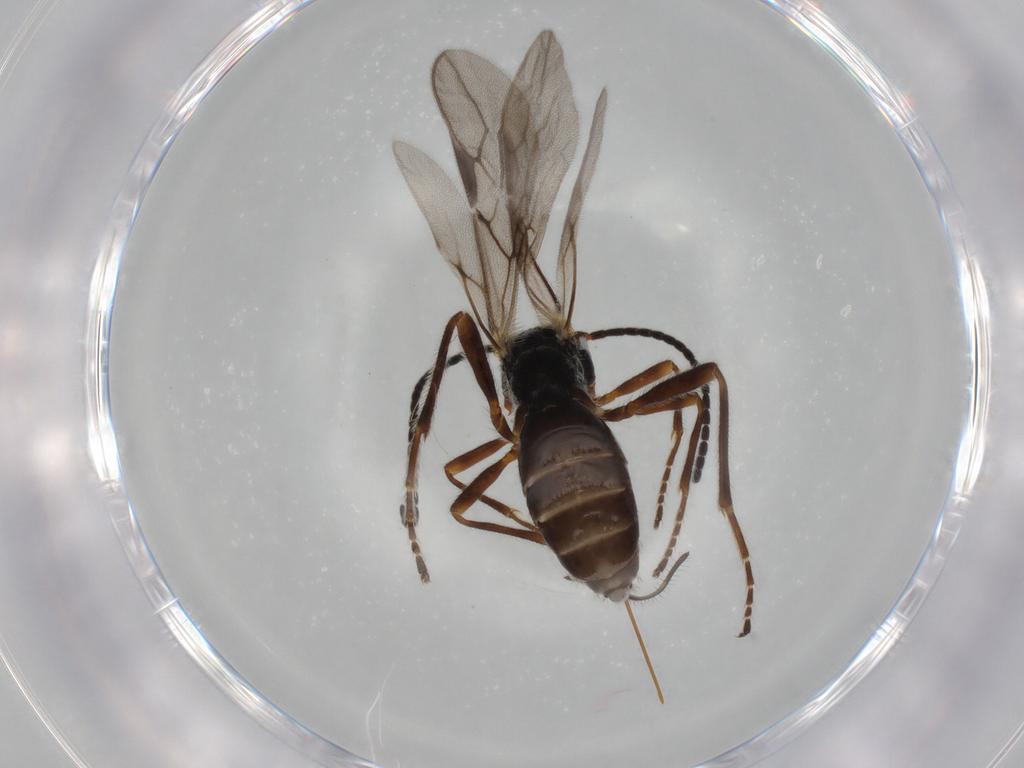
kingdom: Animalia
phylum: Arthropoda
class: Insecta
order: Hymenoptera
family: Braconidae
